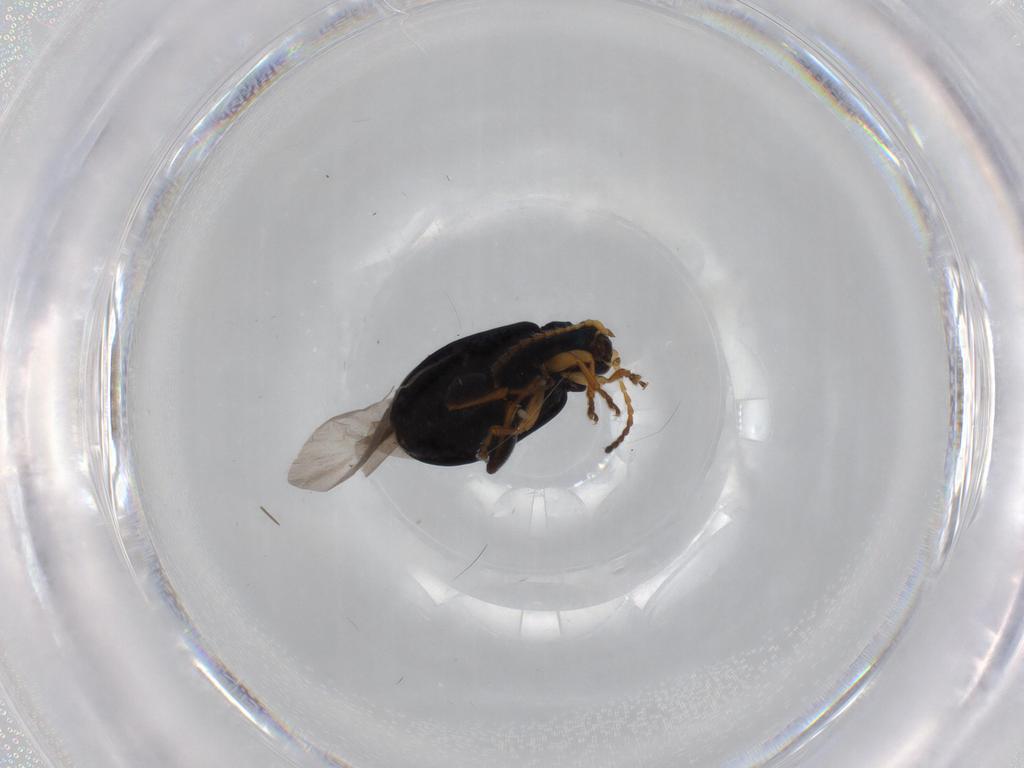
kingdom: Animalia
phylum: Arthropoda
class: Insecta
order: Coleoptera
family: Chrysomelidae
